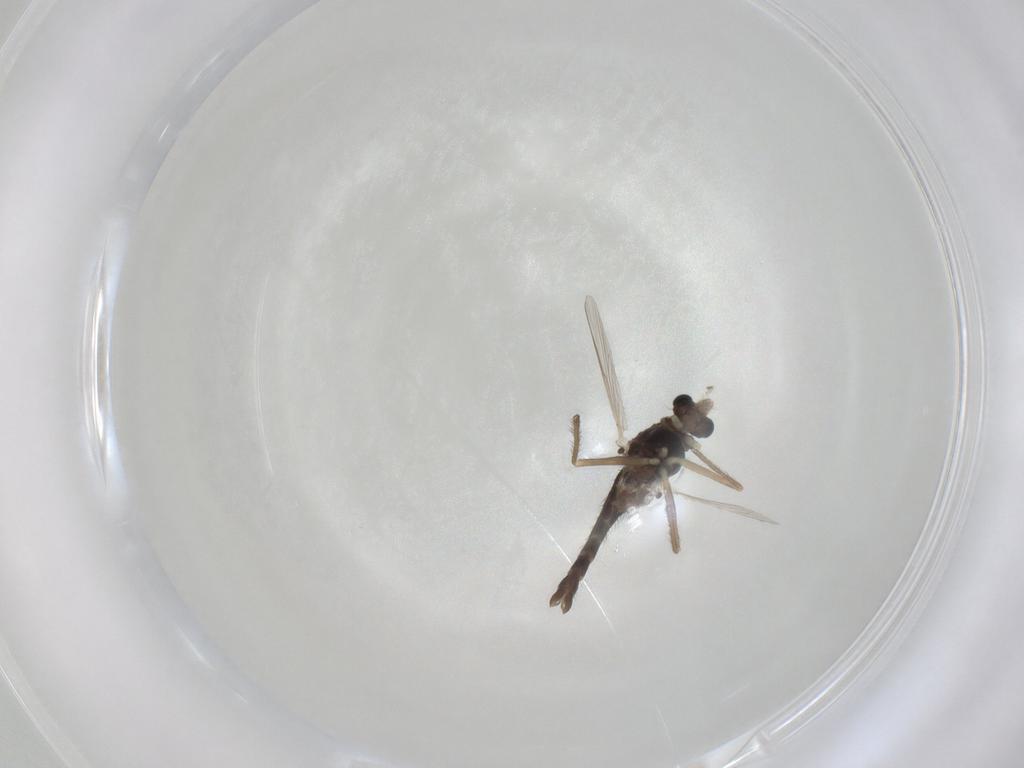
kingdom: Animalia
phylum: Arthropoda
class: Insecta
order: Diptera
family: Chironomidae
